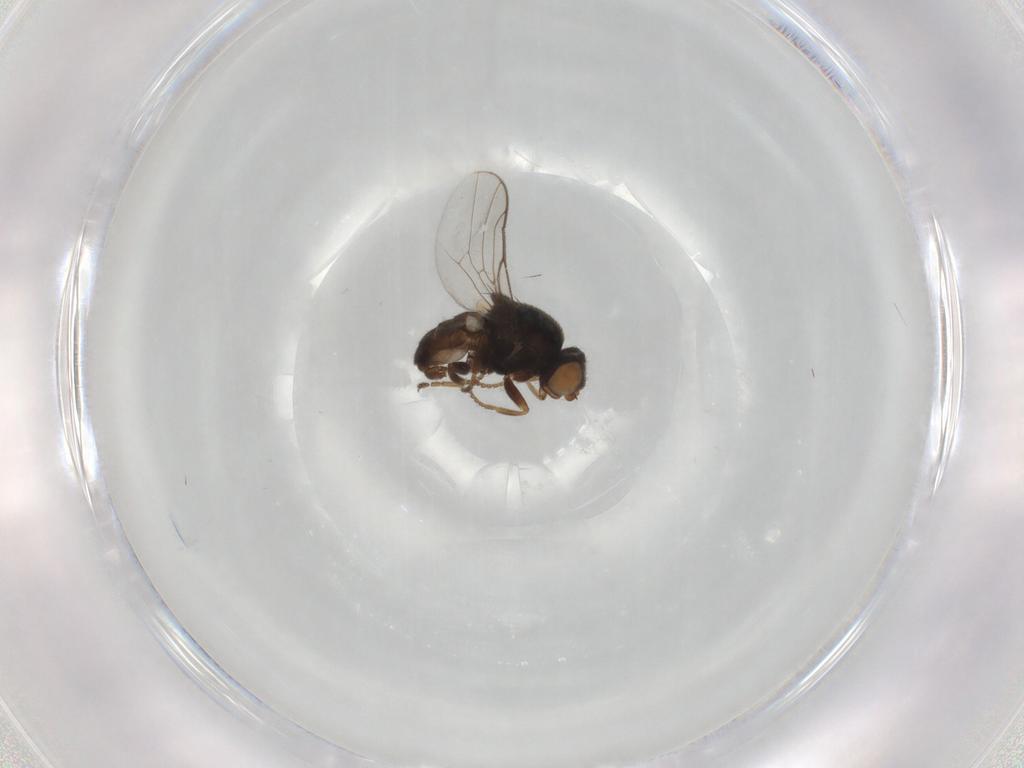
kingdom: Animalia
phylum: Arthropoda
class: Insecta
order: Diptera
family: Chloropidae
